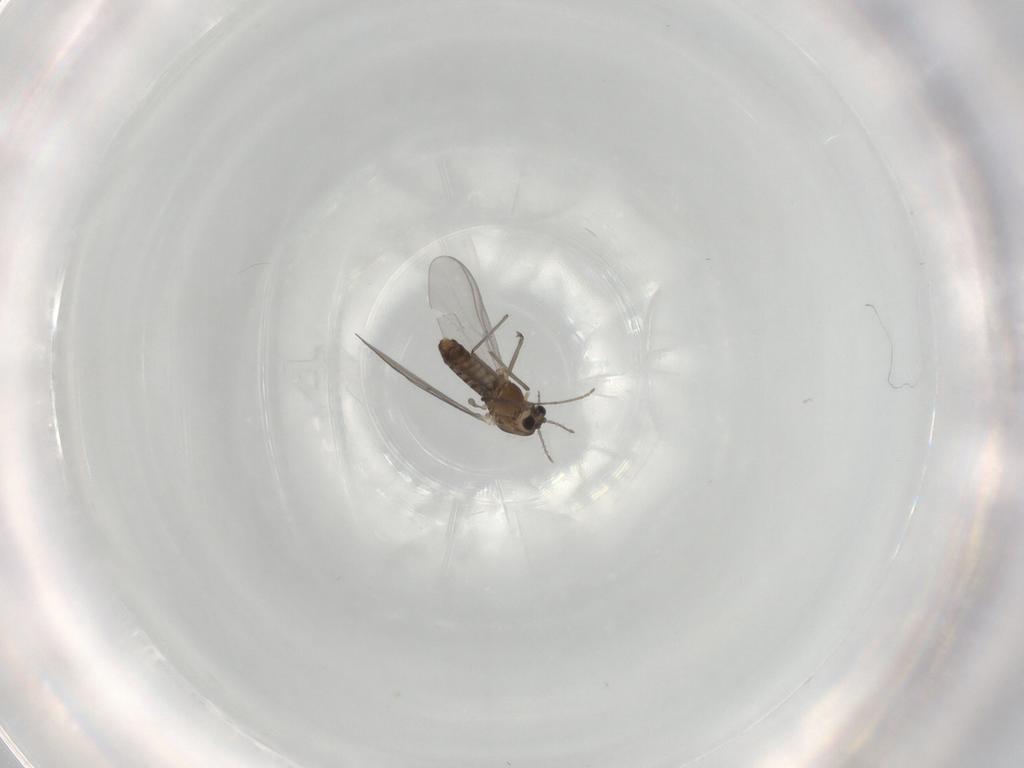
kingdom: Animalia
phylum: Arthropoda
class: Insecta
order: Diptera
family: Chironomidae
